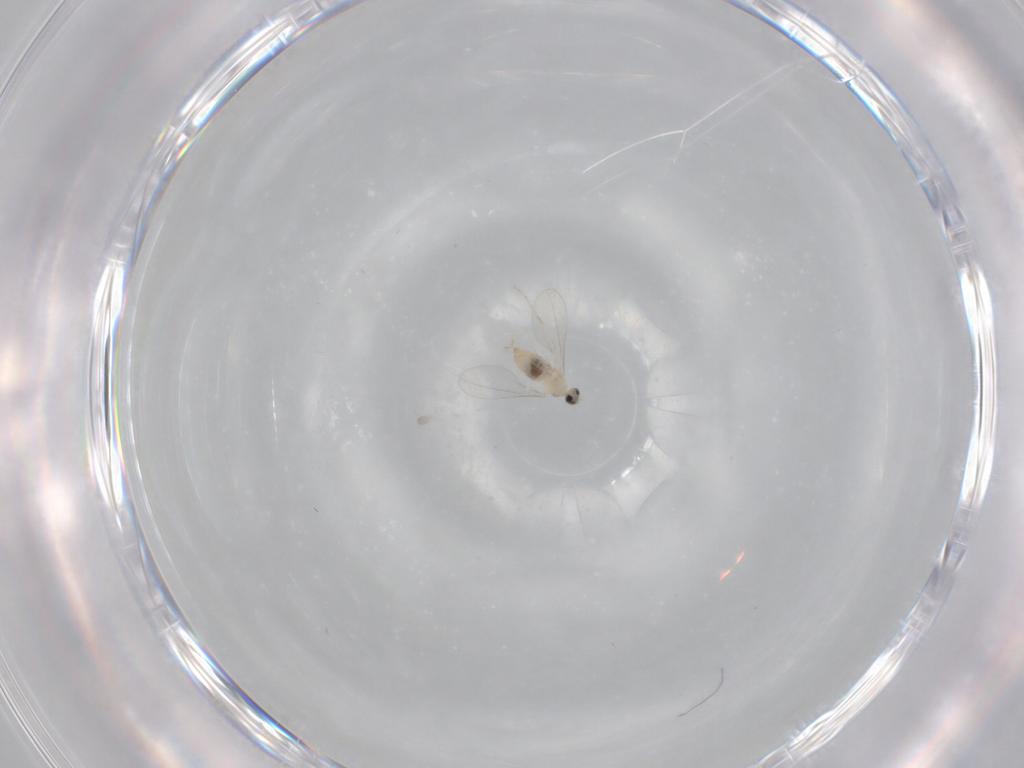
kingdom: Animalia
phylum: Arthropoda
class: Insecta
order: Diptera
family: Cecidomyiidae
